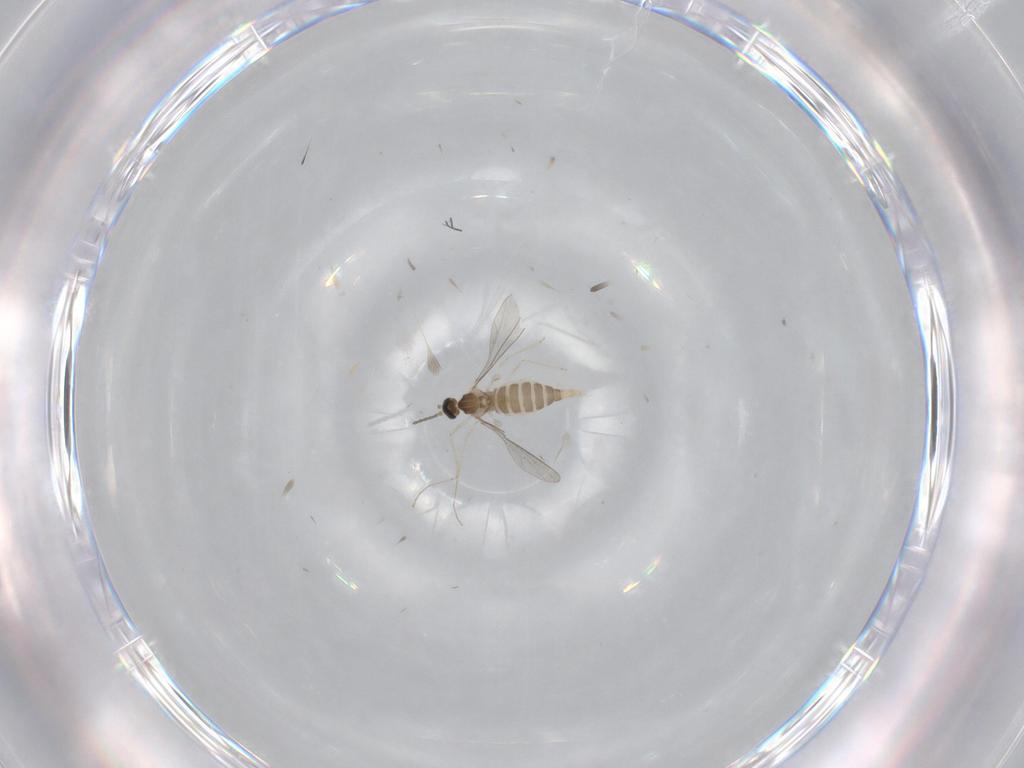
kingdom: Animalia
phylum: Arthropoda
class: Insecta
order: Diptera
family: Cecidomyiidae
